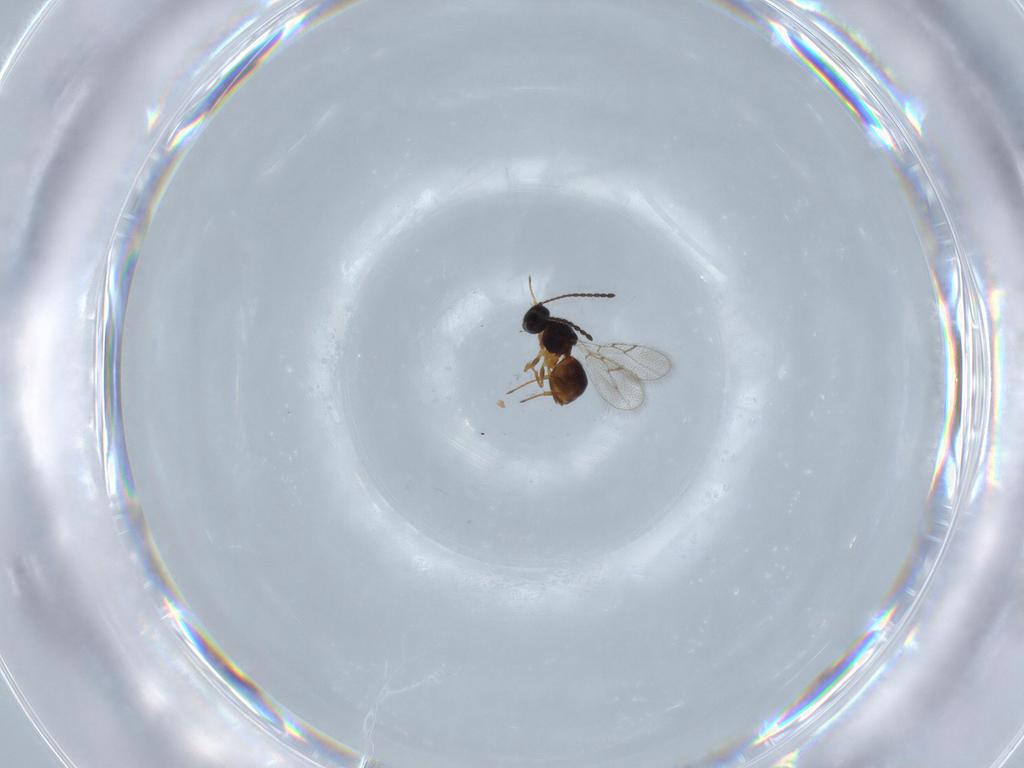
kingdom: Animalia
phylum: Arthropoda
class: Insecta
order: Hymenoptera
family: Figitidae
